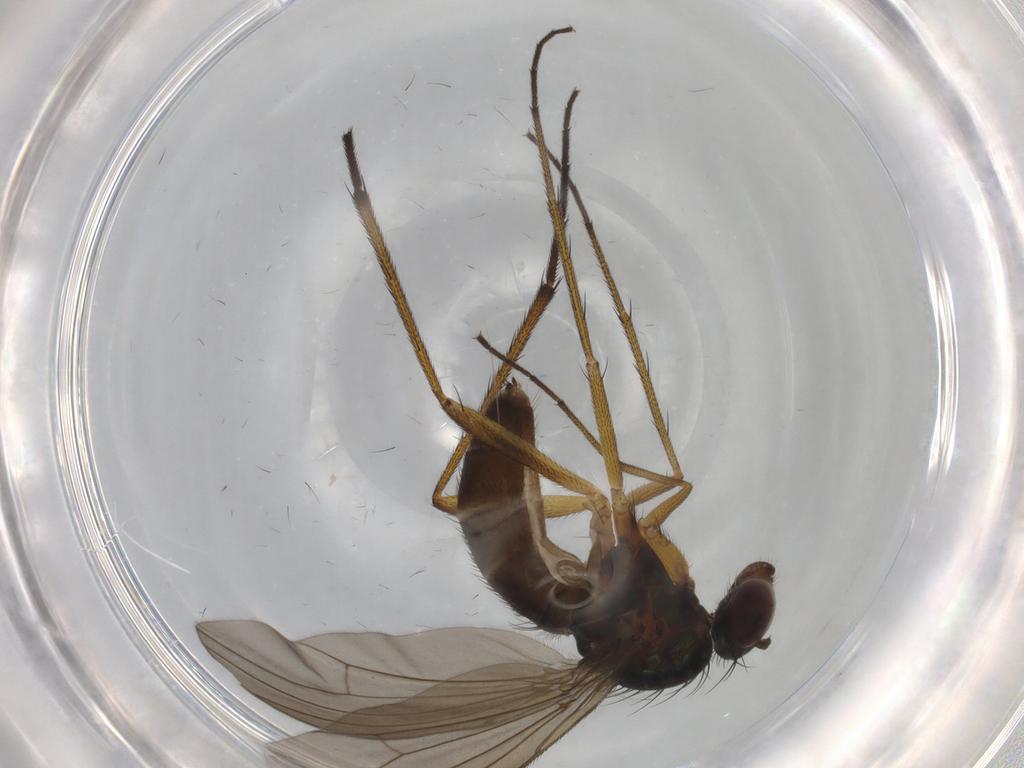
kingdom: Animalia
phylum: Arthropoda
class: Insecta
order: Diptera
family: Dolichopodidae
